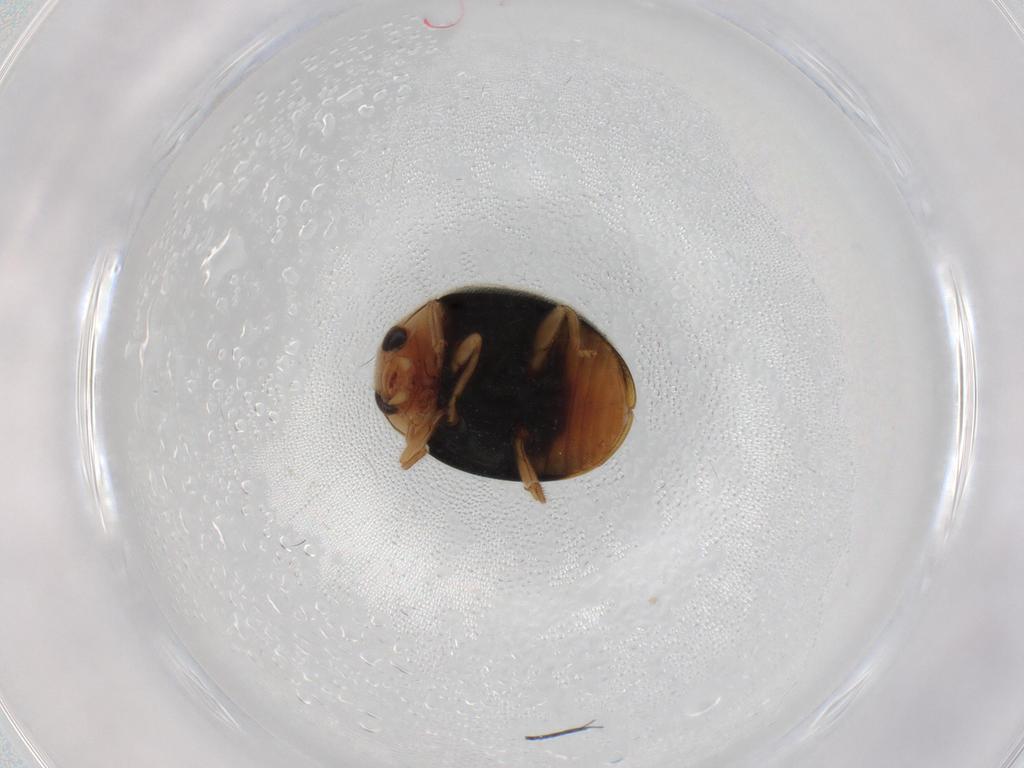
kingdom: Animalia
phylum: Arthropoda
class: Insecta
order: Coleoptera
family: Coccinellidae
